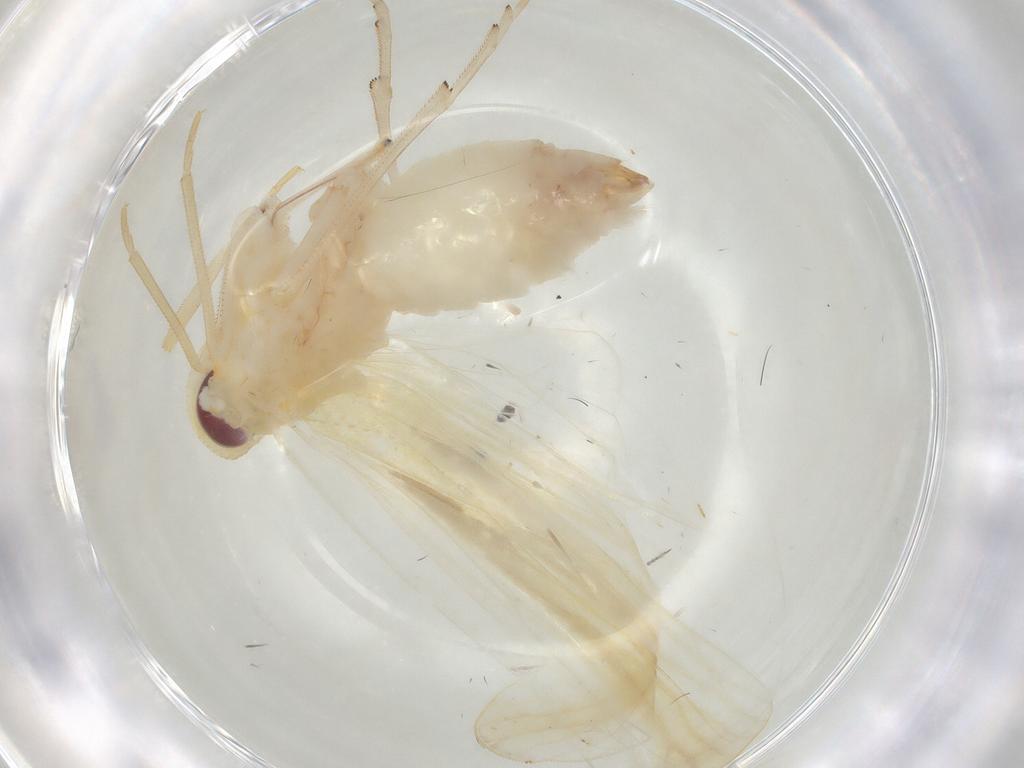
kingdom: Animalia
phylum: Arthropoda
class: Insecta
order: Hemiptera
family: Derbidae
